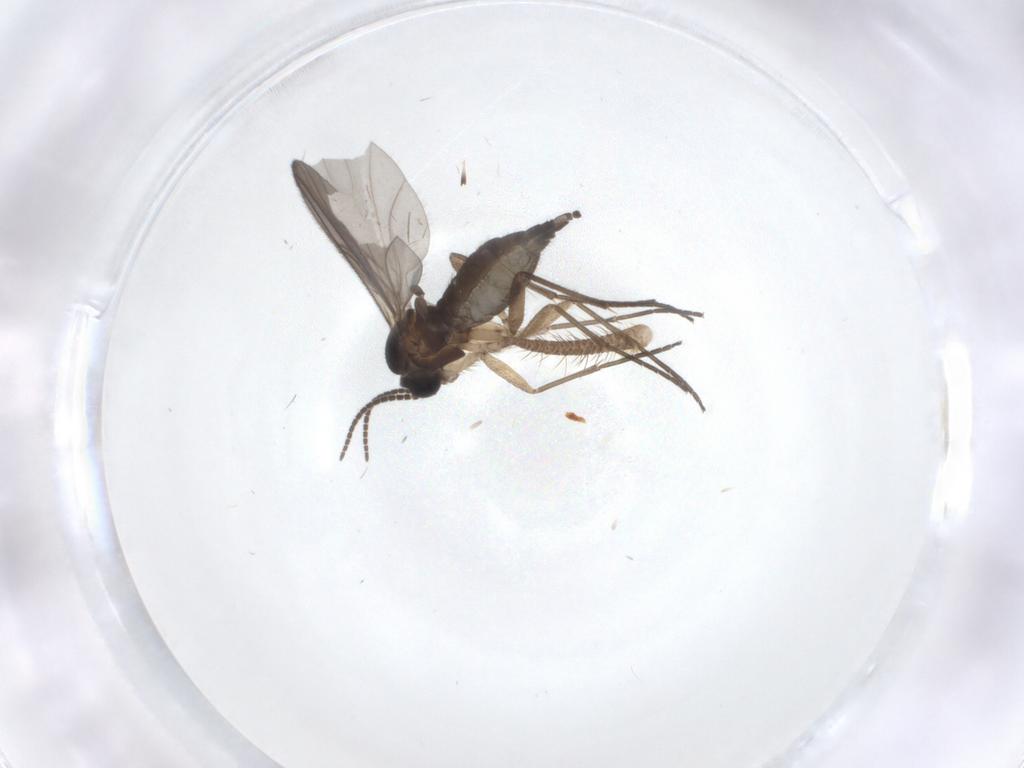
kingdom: Animalia
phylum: Arthropoda
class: Insecta
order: Diptera
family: Sciaridae
